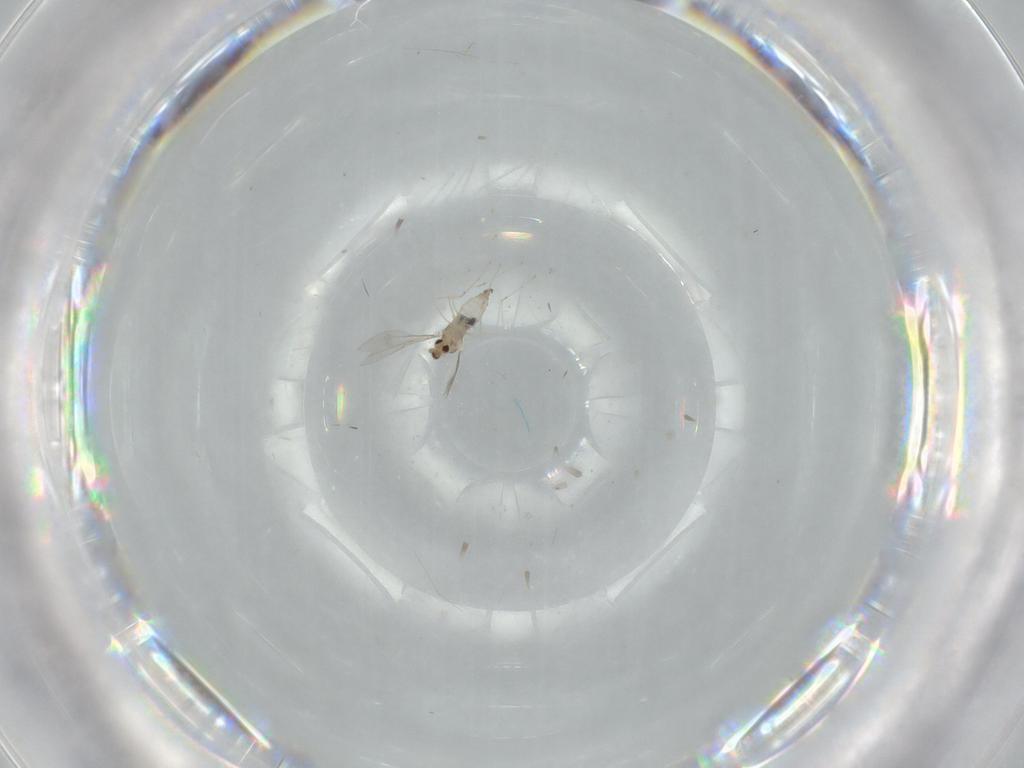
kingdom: Animalia
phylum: Arthropoda
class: Insecta
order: Diptera
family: Cecidomyiidae
